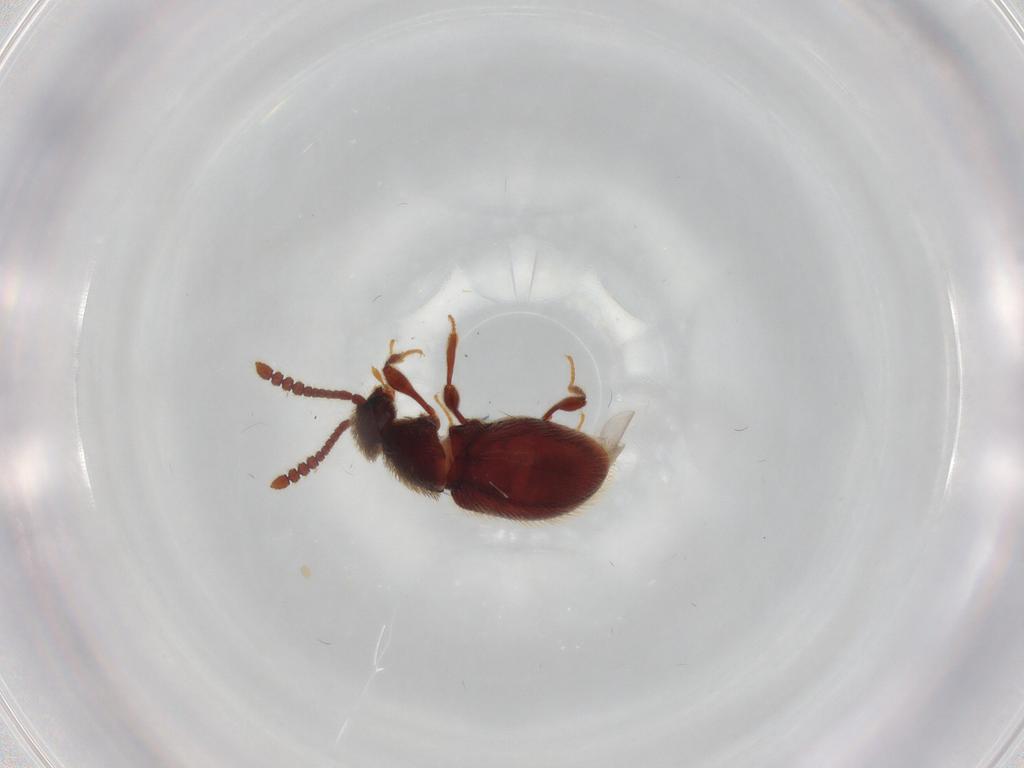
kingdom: Animalia
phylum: Arthropoda
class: Insecta
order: Coleoptera
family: Staphylinidae
